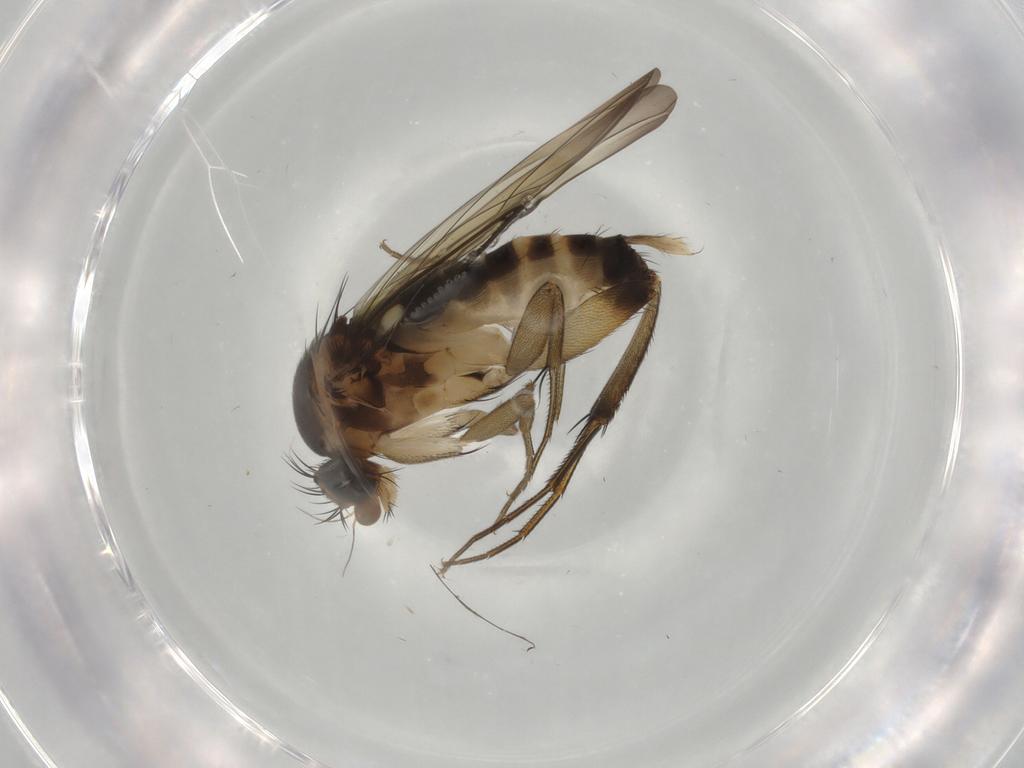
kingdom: Animalia
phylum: Arthropoda
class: Insecta
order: Diptera
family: Phoridae
